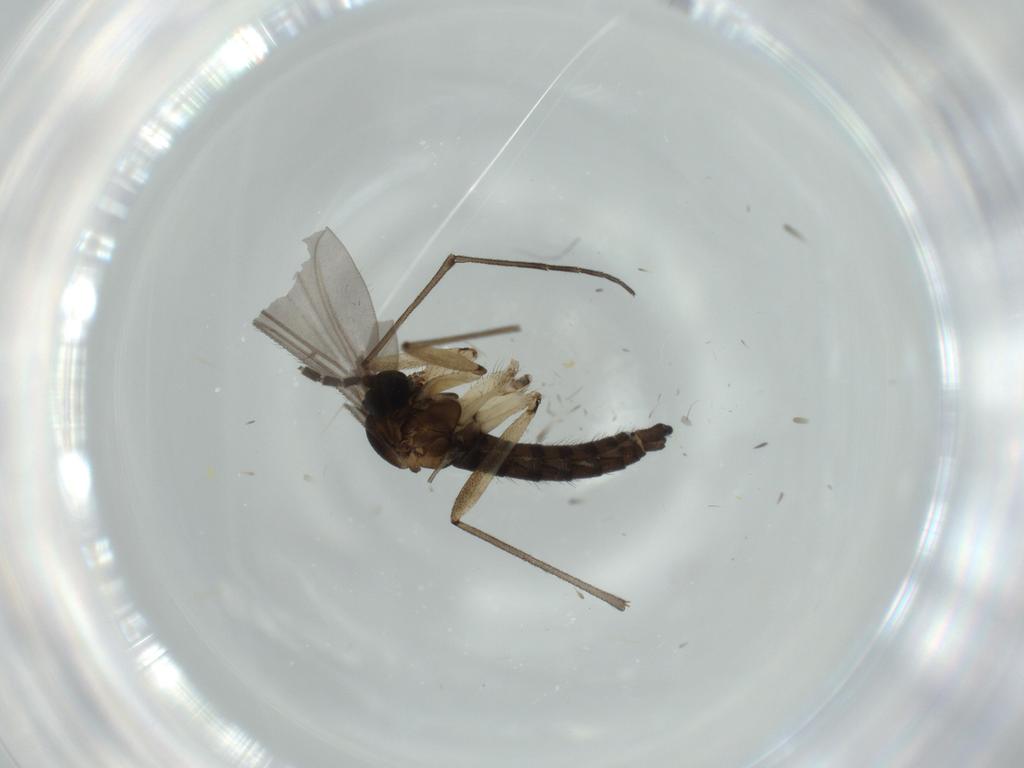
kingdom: Animalia
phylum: Arthropoda
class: Insecta
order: Diptera
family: Sciaridae
